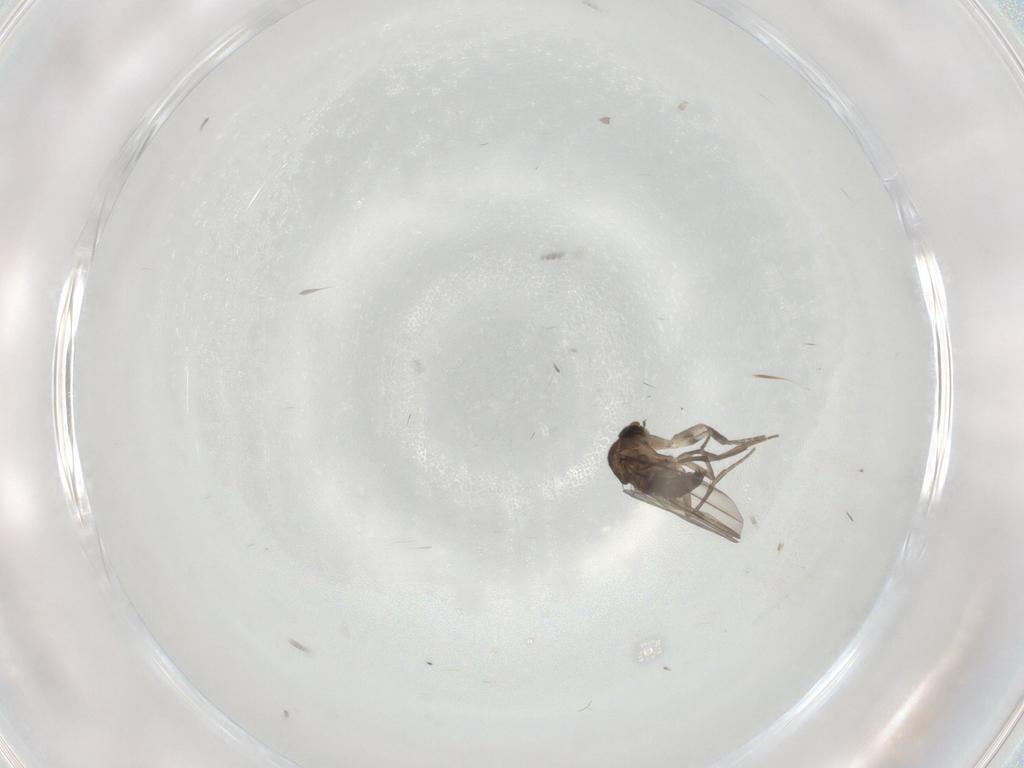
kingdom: Animalia
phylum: Arthropoda
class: Insecta
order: Diptera
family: Phoridae
